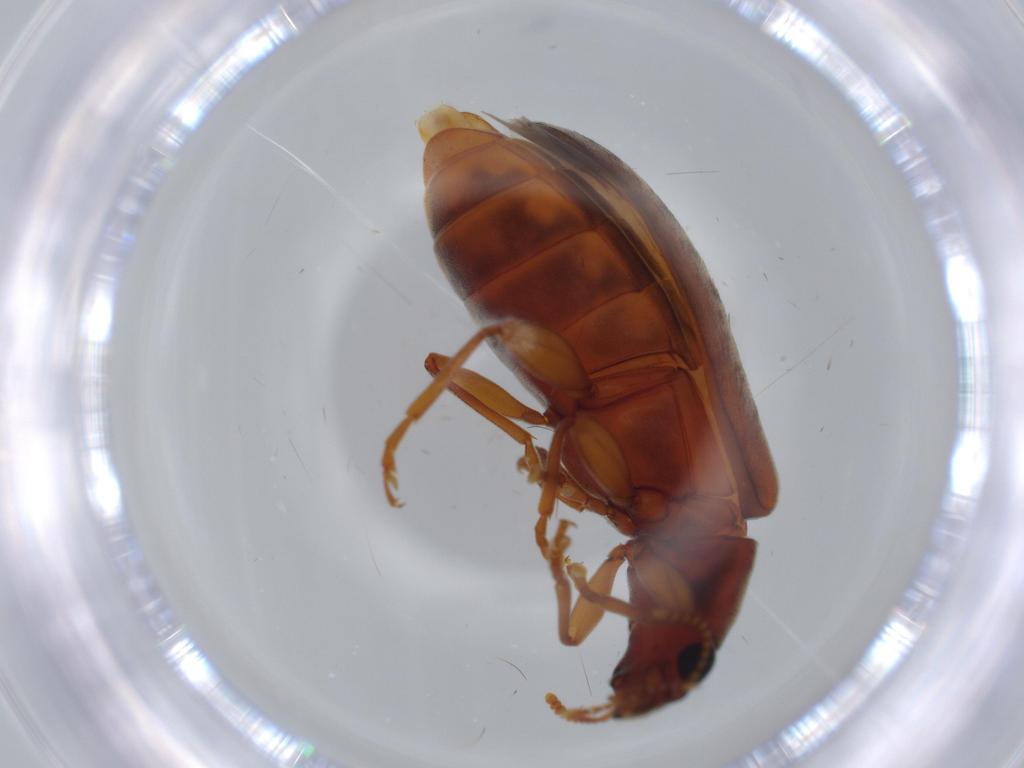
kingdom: Animalia
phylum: Arthropoda
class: Insecta
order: Coleoptera
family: Mycteridae
